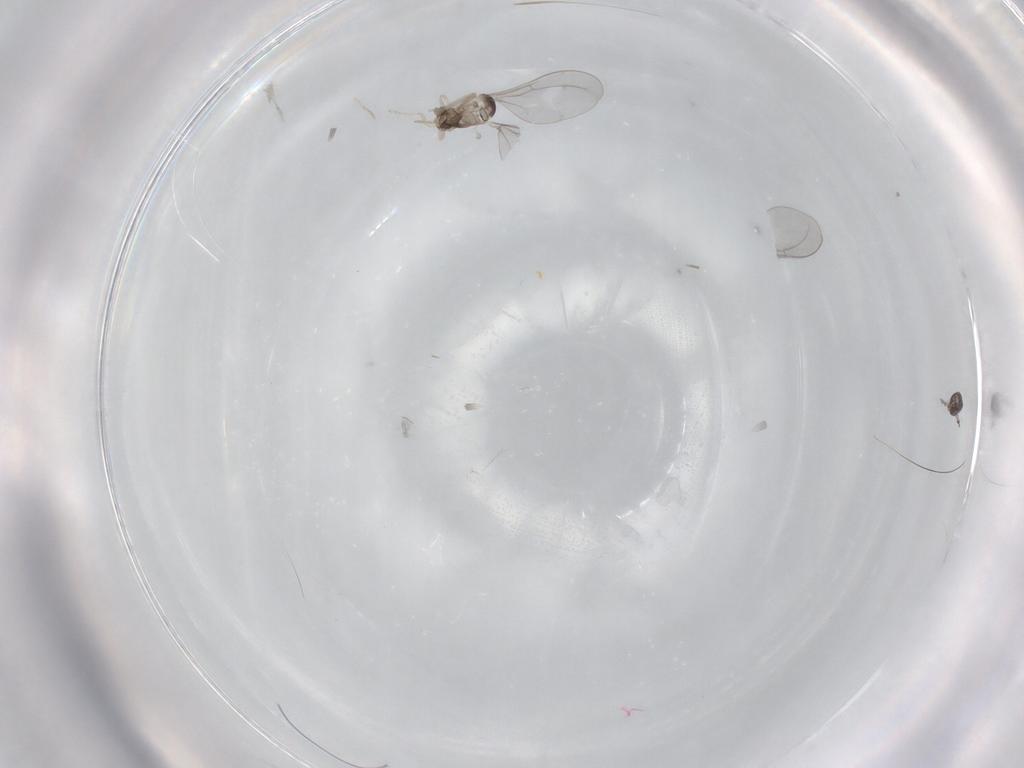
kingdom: Animalia
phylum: Arthropoda
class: Insecta
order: Diptera
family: Cecidomyiidae
